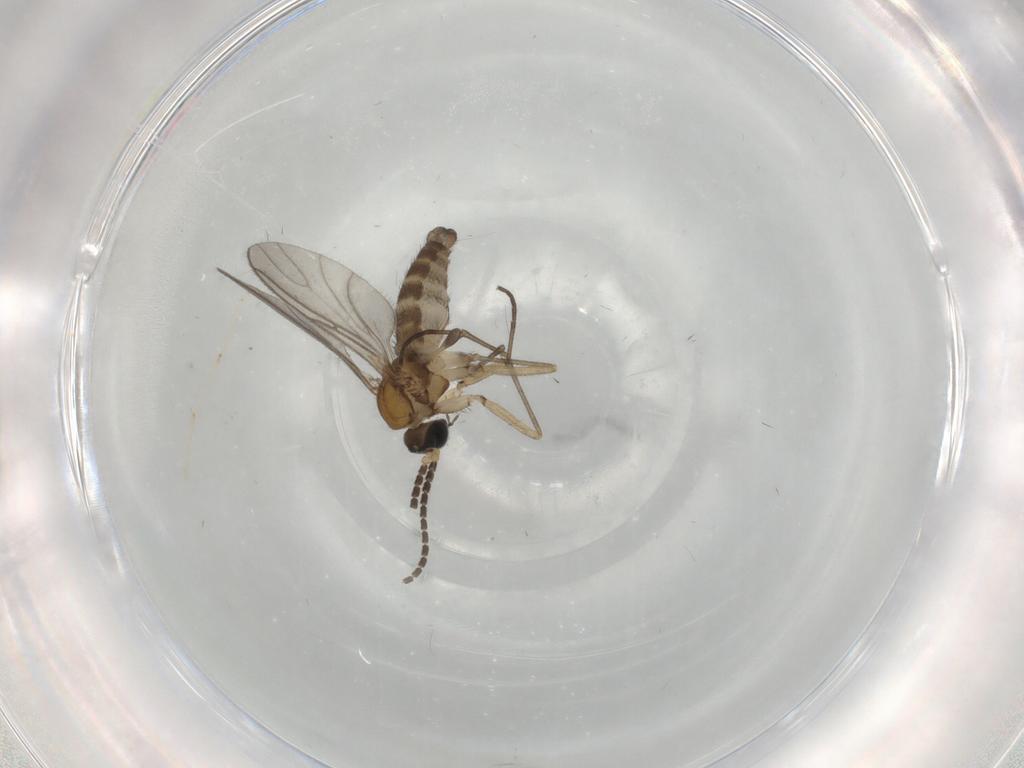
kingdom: Animalia
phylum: Arthropoda
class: Insecta
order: Diptera
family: Sciaridae
